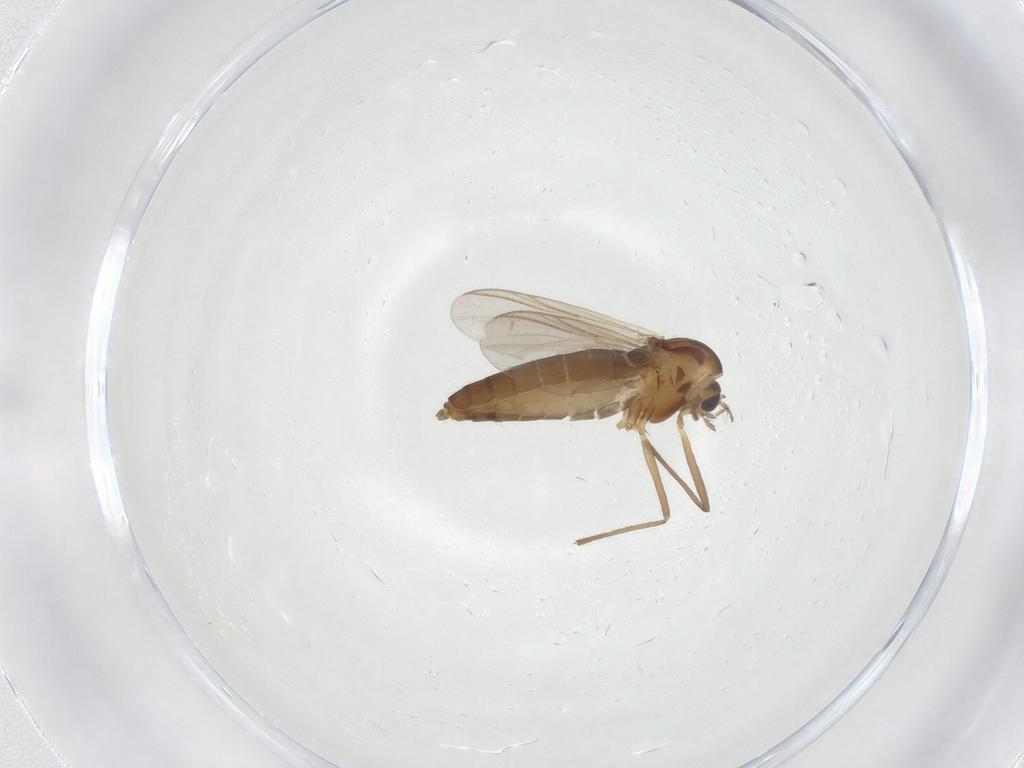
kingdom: Animalia
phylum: Arthropoda
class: Insecta
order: Diptera
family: Chironomidae
